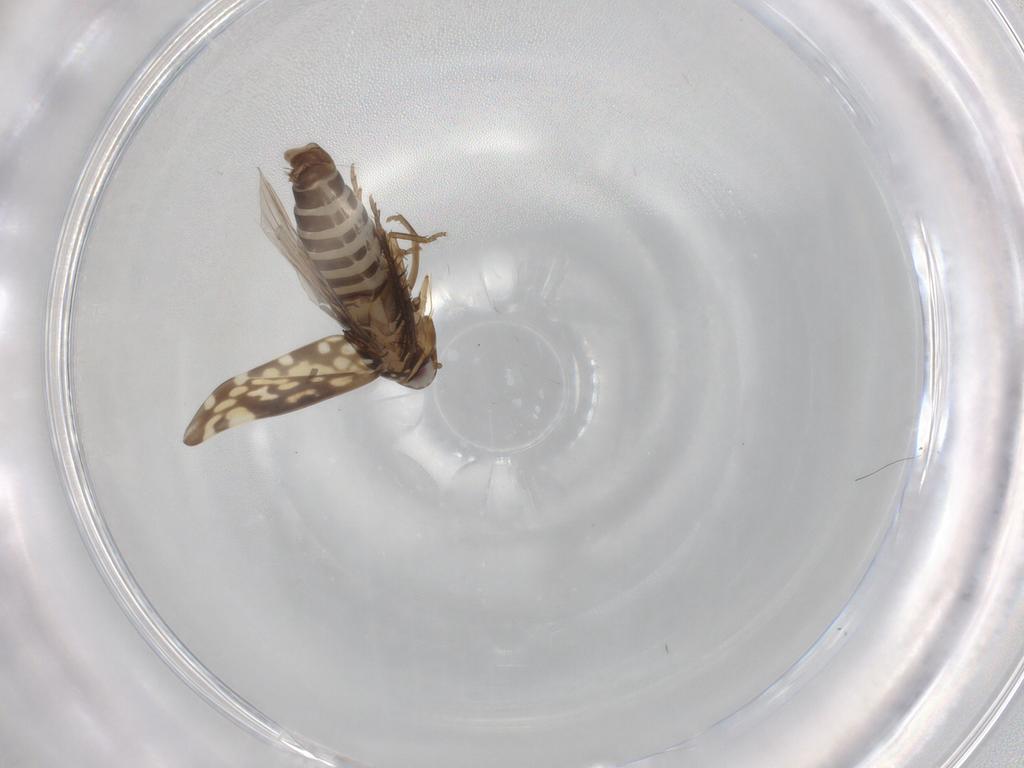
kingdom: Animalia
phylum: Arthropoda
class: Insecta
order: Hemiptera
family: Cicadellidae
